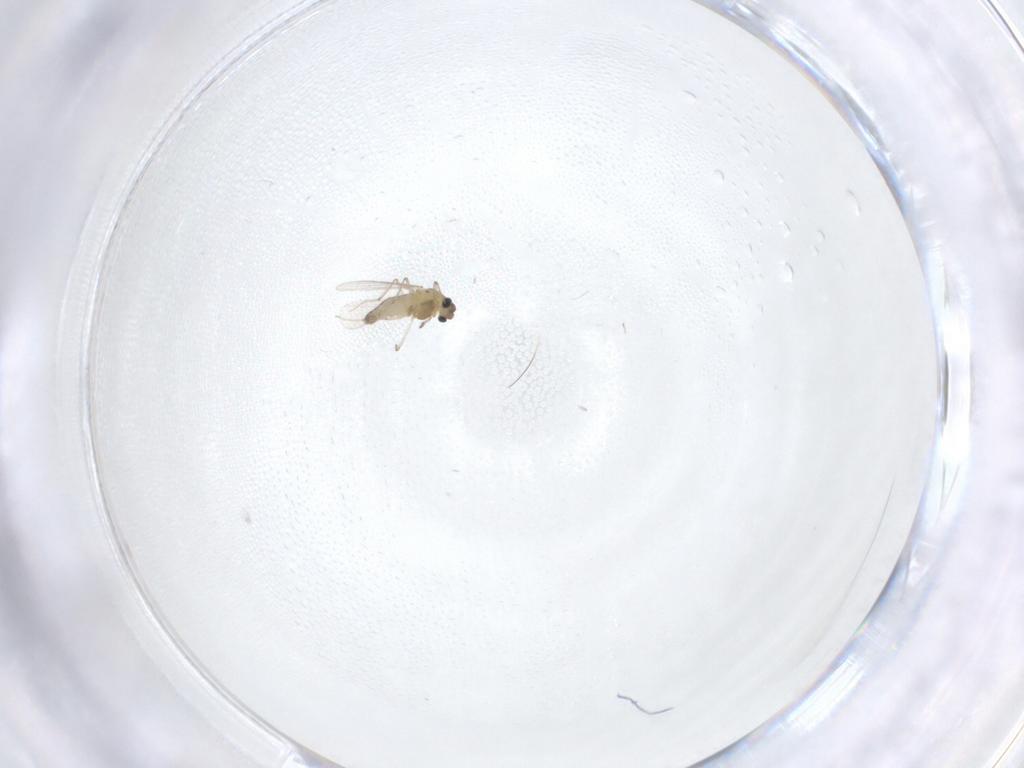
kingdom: Animalia
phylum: Arthropoda
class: Insecta
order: Diptera
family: Chironomidae
